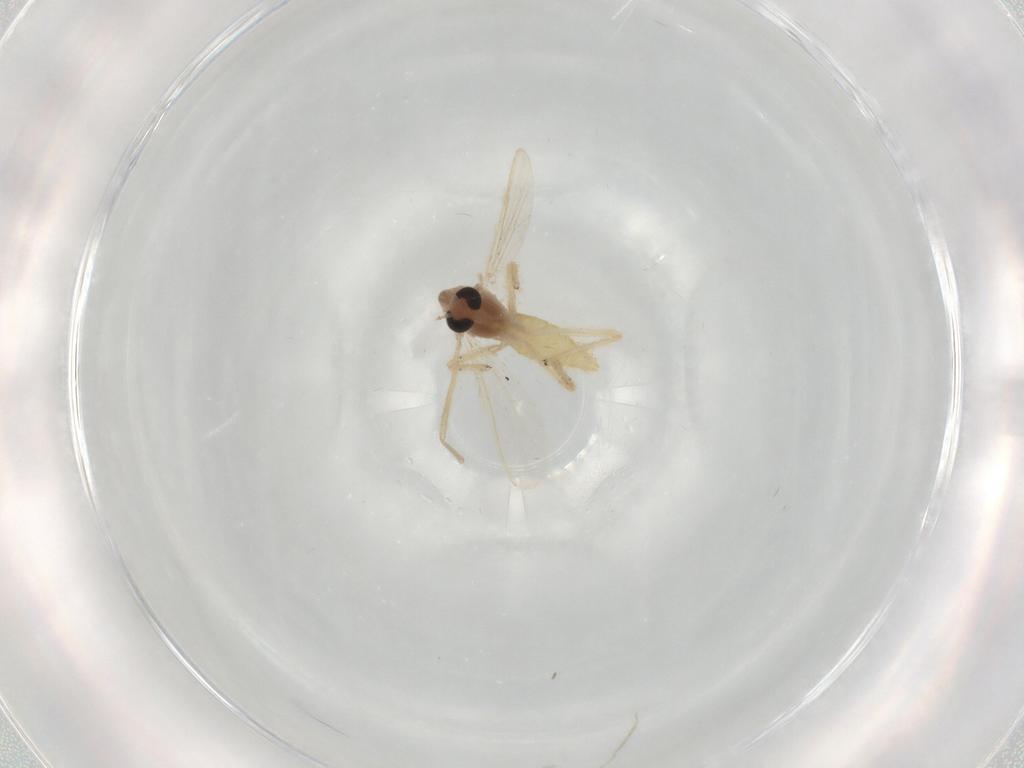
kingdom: Animalia
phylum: Arthropoda
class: Insecta
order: Diptera
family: Chironomidae
